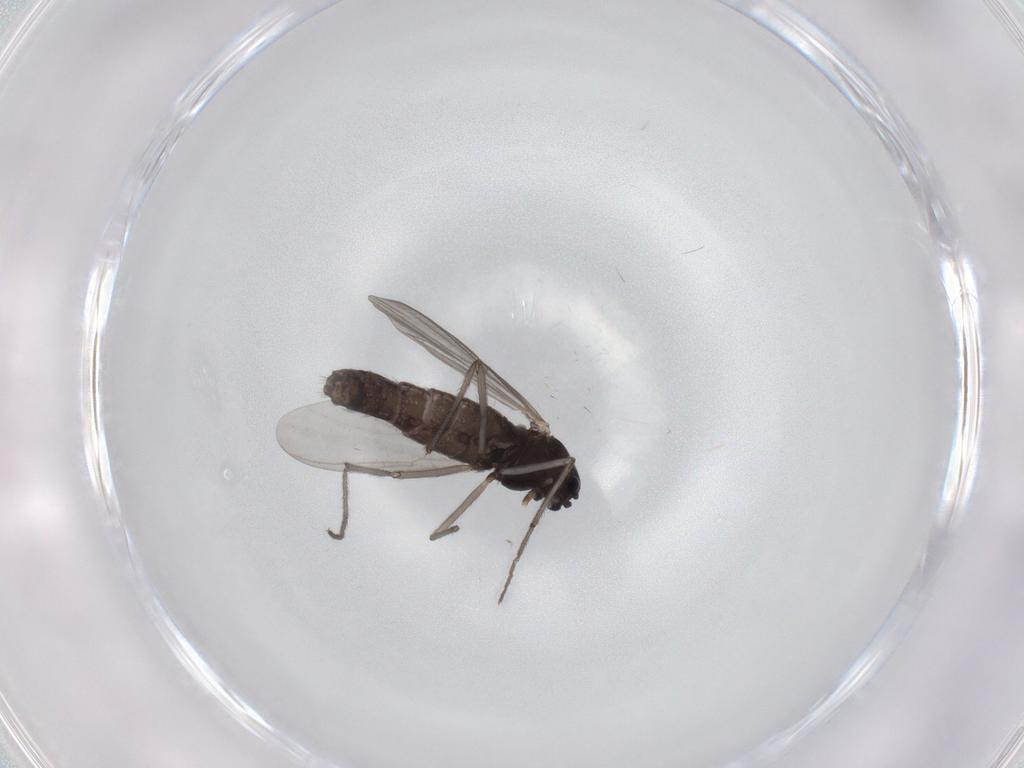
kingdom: Animalia
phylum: Arthropoda
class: Insecta
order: Diptera
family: Chironomidae
